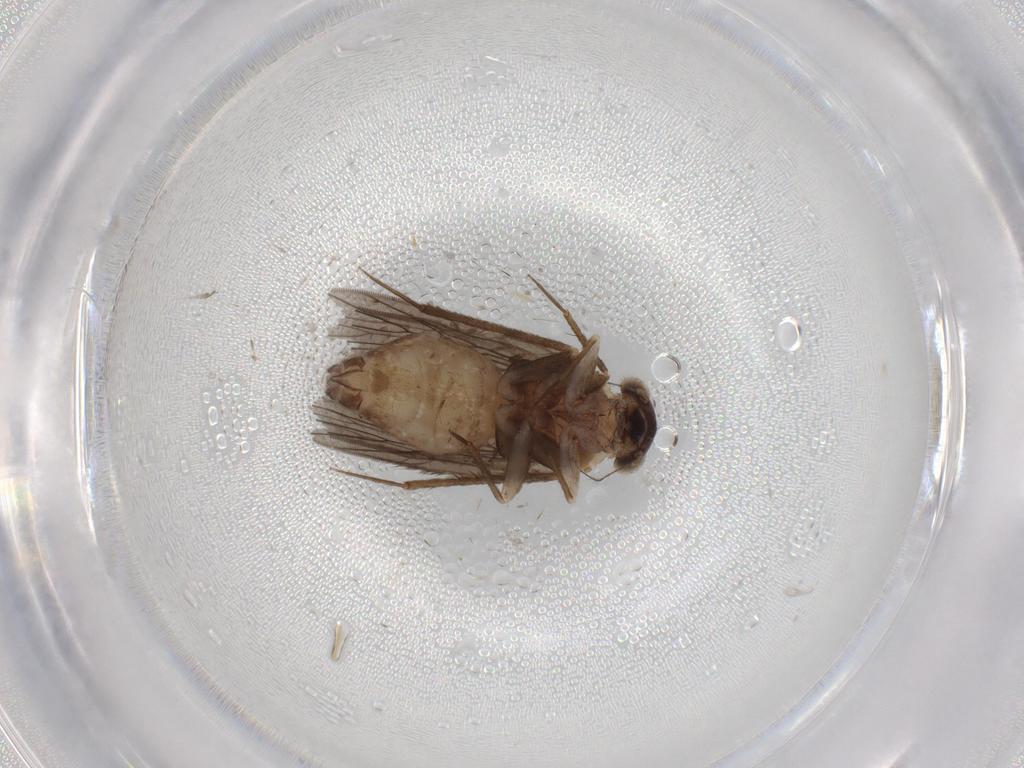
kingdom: Animalia
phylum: Arthropoda
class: Insecta
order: Psocodea
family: Lepidopsocidae
